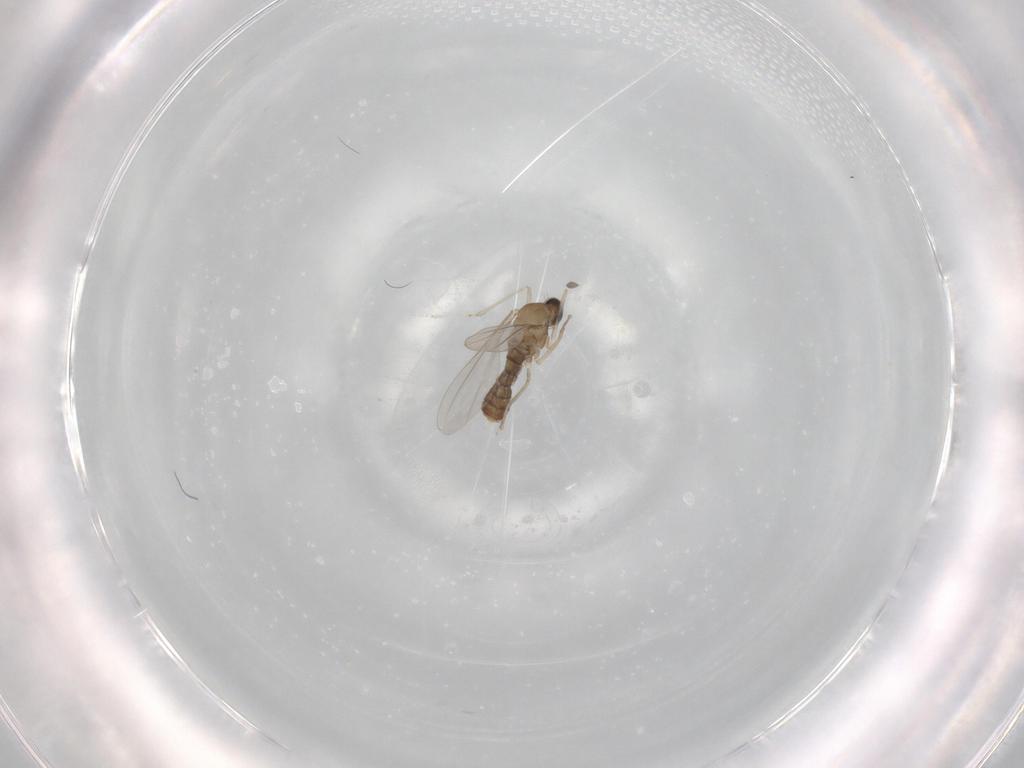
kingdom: Animalia
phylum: Arthropoda
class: Insecta
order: Diptera
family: Cecidomyiidae
